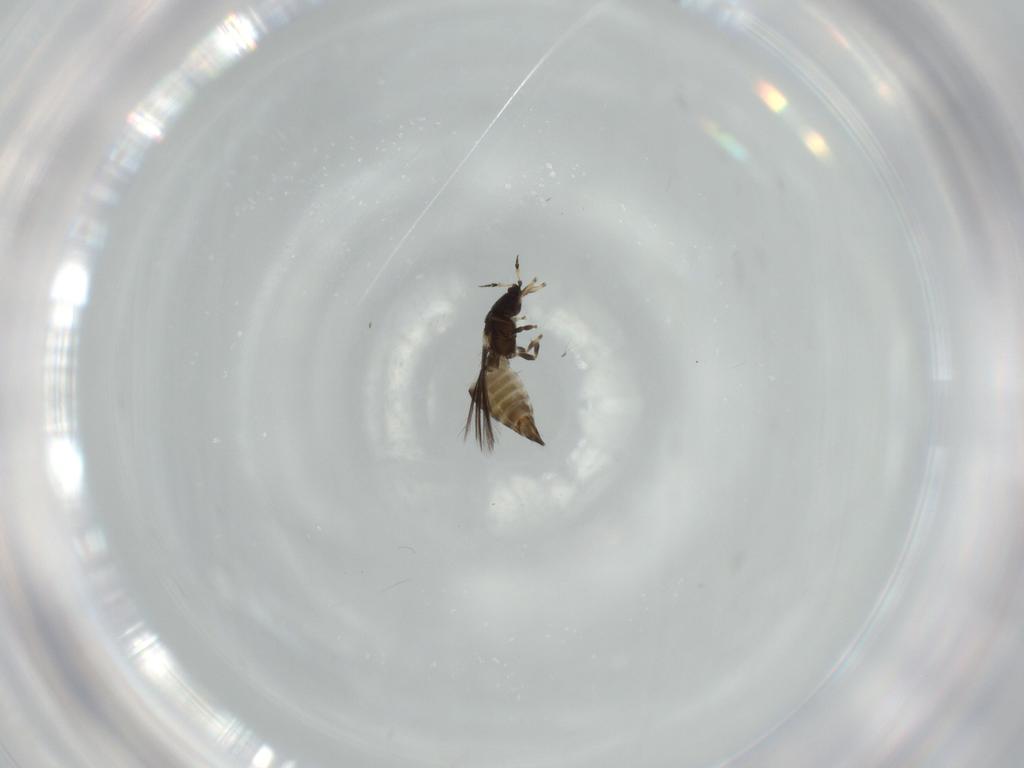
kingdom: Animalia
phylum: Arthropoda
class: Insecta
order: Thysanoptera
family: Heterothripidae
